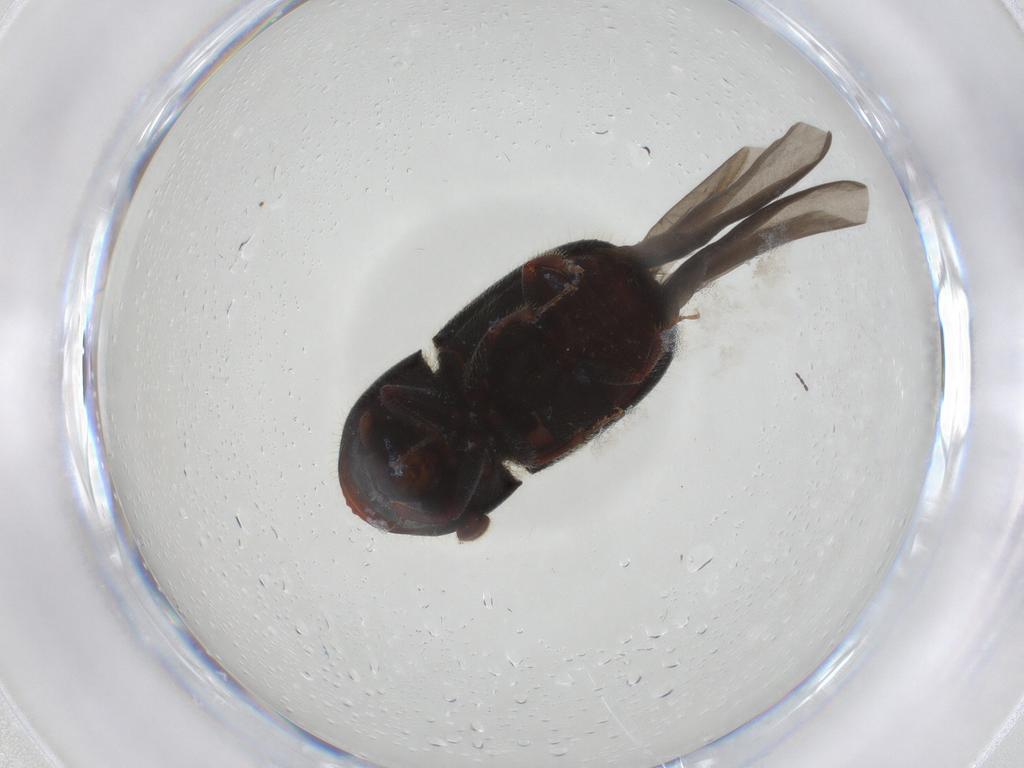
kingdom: Animalia
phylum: Arthropoda
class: Insecta
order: Coleoptera
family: Curculionidae
